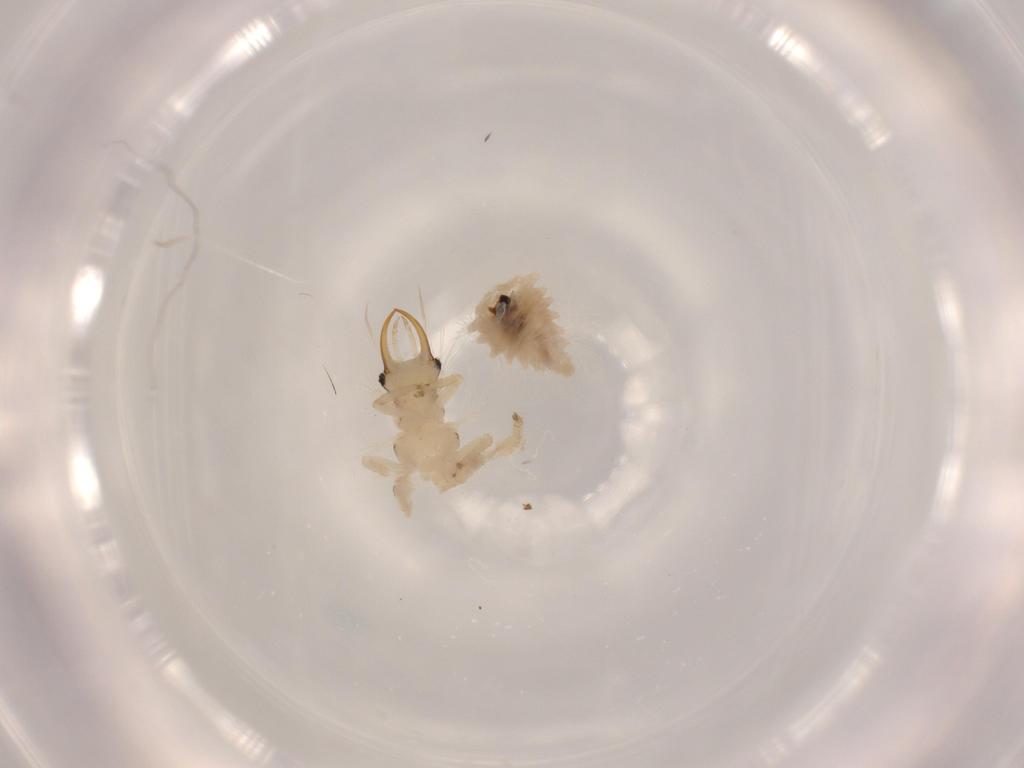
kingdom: Animalia
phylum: Arthropoda
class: Insecta
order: Neuroptera
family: Chrysopidae
